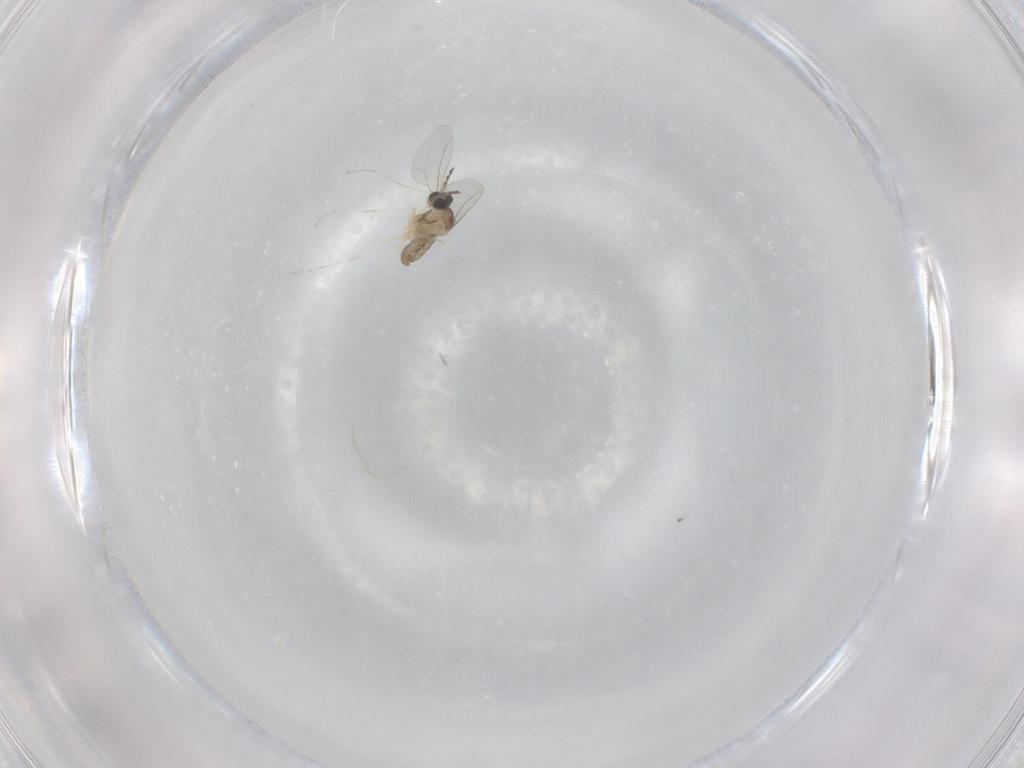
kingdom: Animalia
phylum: Arthropoda
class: Insecta
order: Diptera
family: Cecidomyiidae
